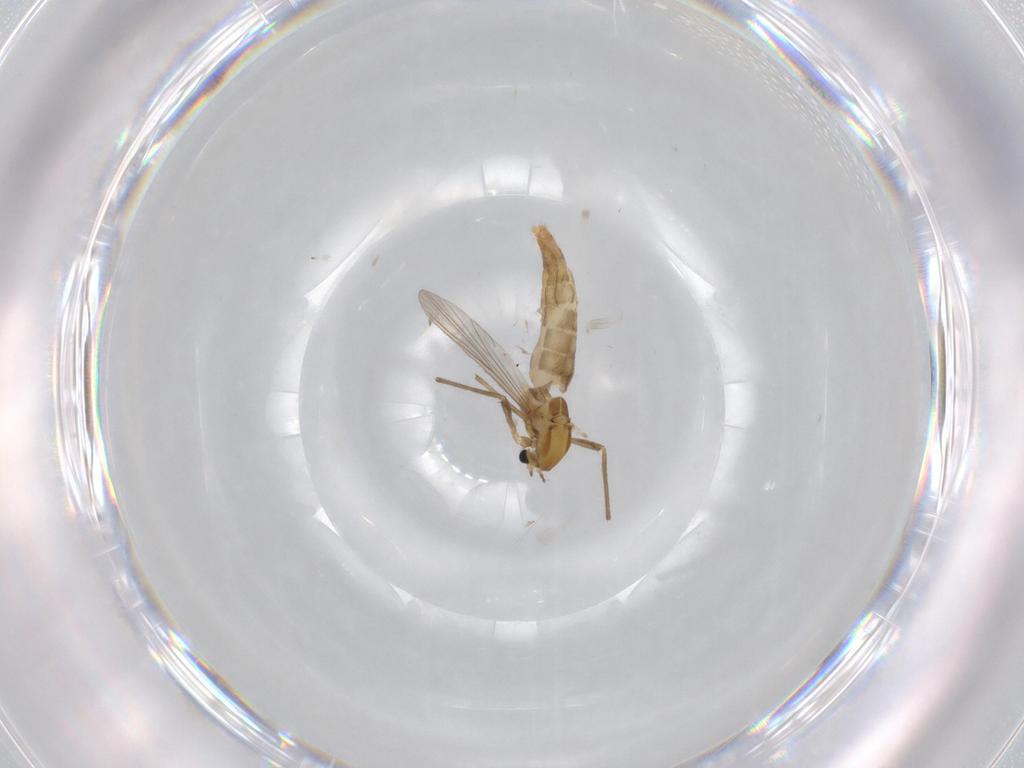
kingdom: Animalia
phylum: Arthropoda
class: Insecta
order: Diptera
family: Chironomidae
